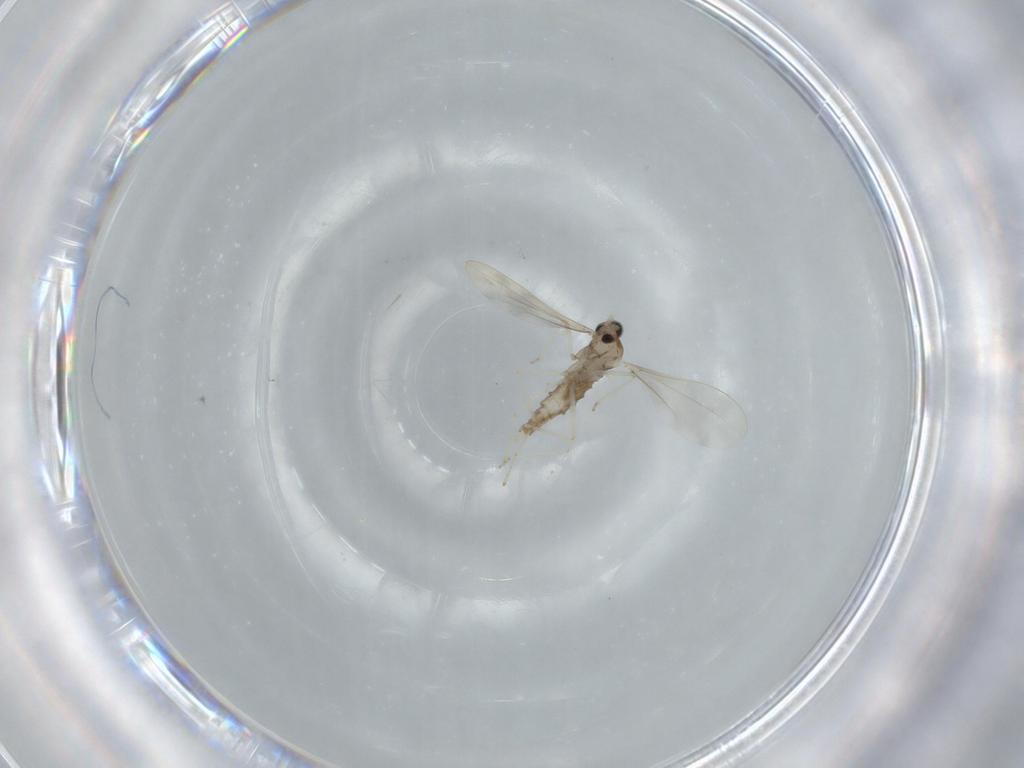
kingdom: Animalia
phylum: Arthropoda
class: Insecta
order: Diptera
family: Cecidomyiidae
